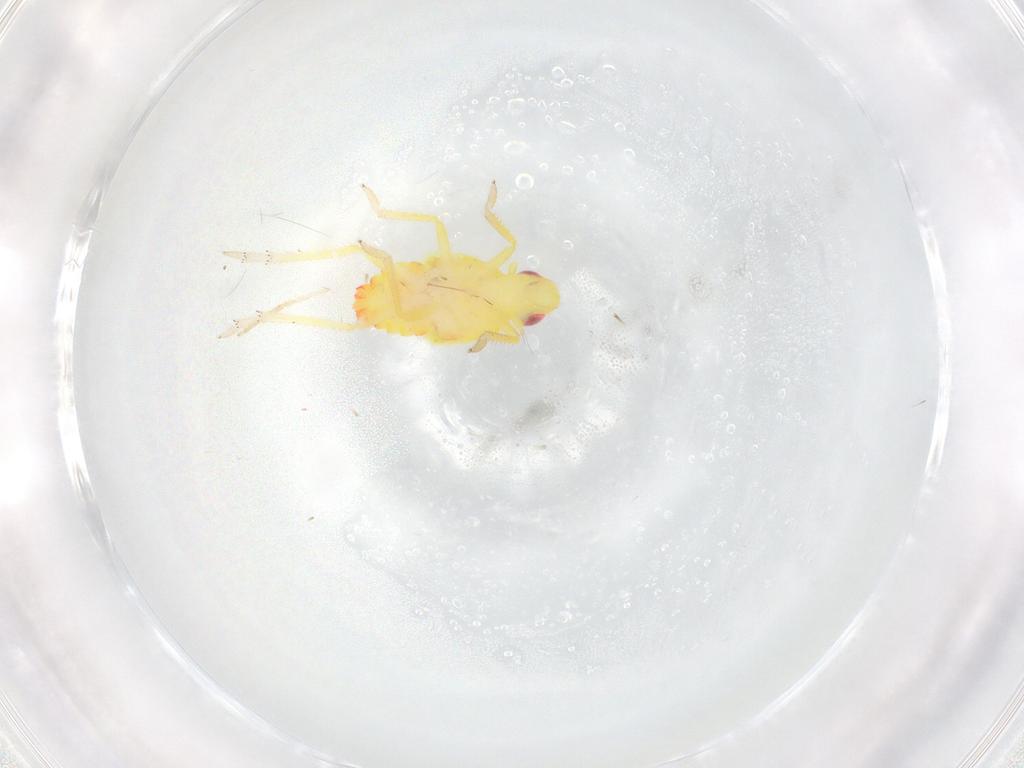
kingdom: Animalia
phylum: Arthropoda
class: Insecta
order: Hemiptera
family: Tropiduchidae
